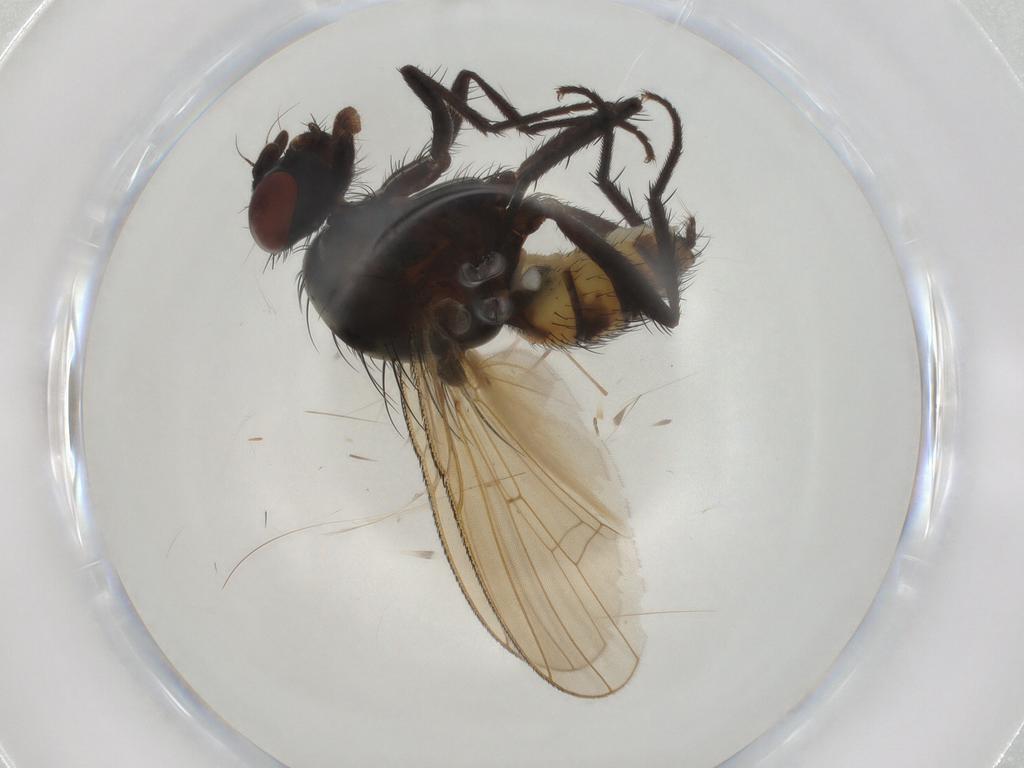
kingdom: Animalia
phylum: Arthropoda
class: Insecta
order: Diptera
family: Anthomyiidae
